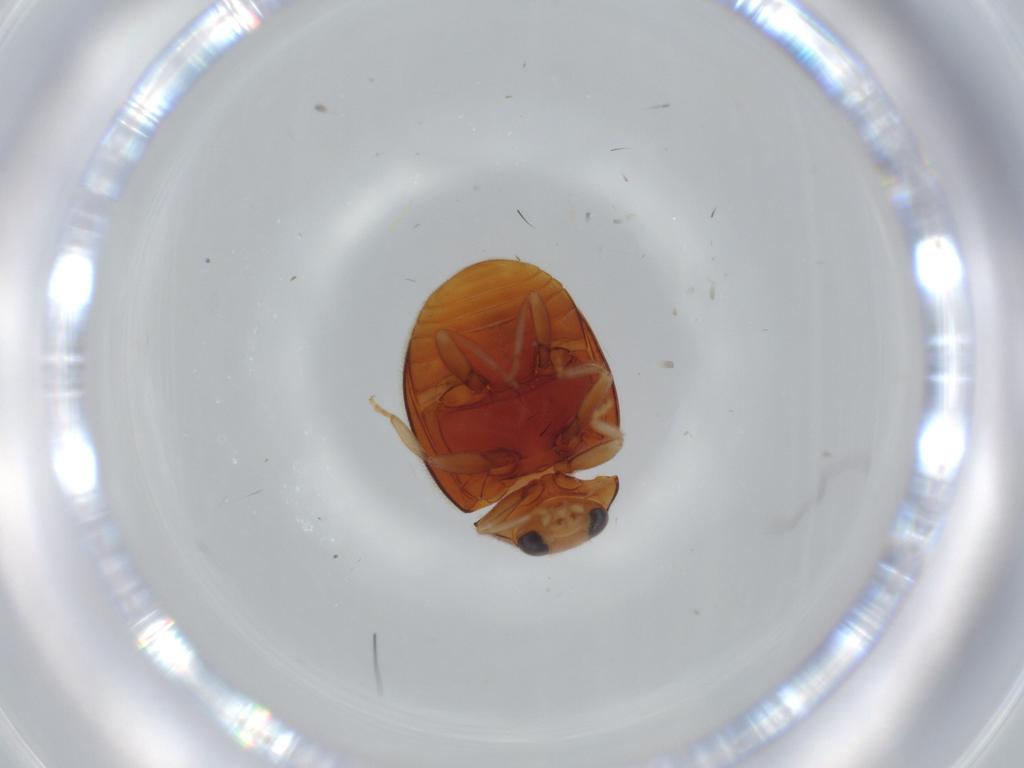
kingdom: Animalia
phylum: Arthropoda
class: Insecta
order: Coleoptera
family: Coccinellidae
